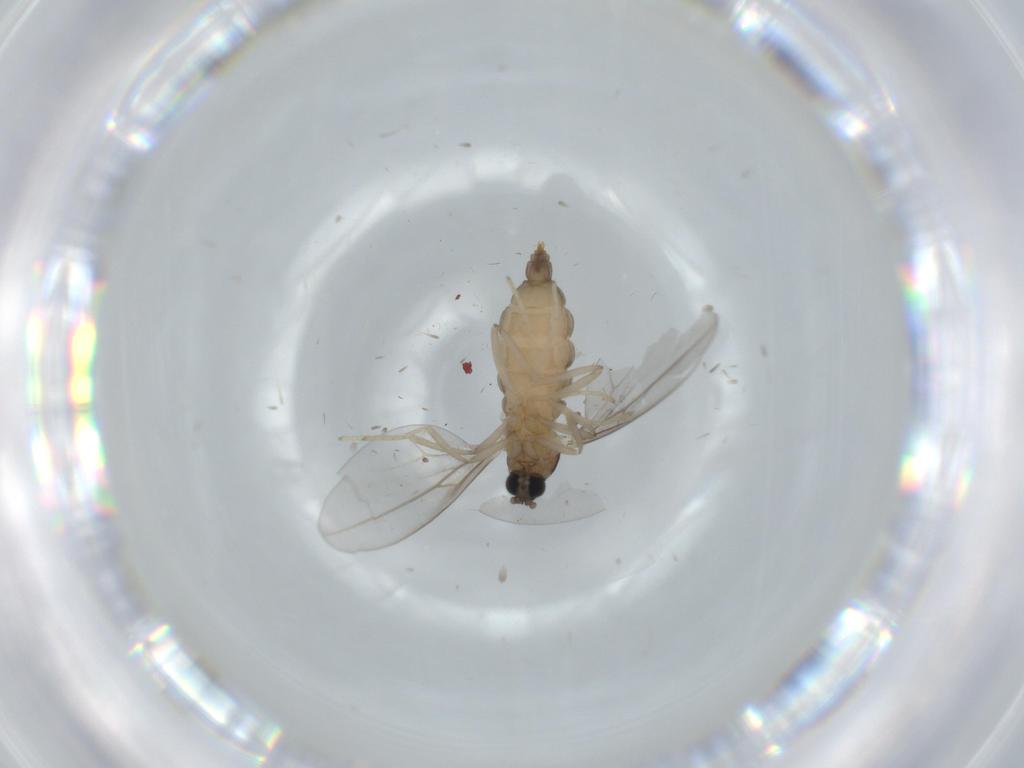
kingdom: Animalia
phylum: Arthropoda
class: Insecta
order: Diptera
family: Cecidomyiidae
